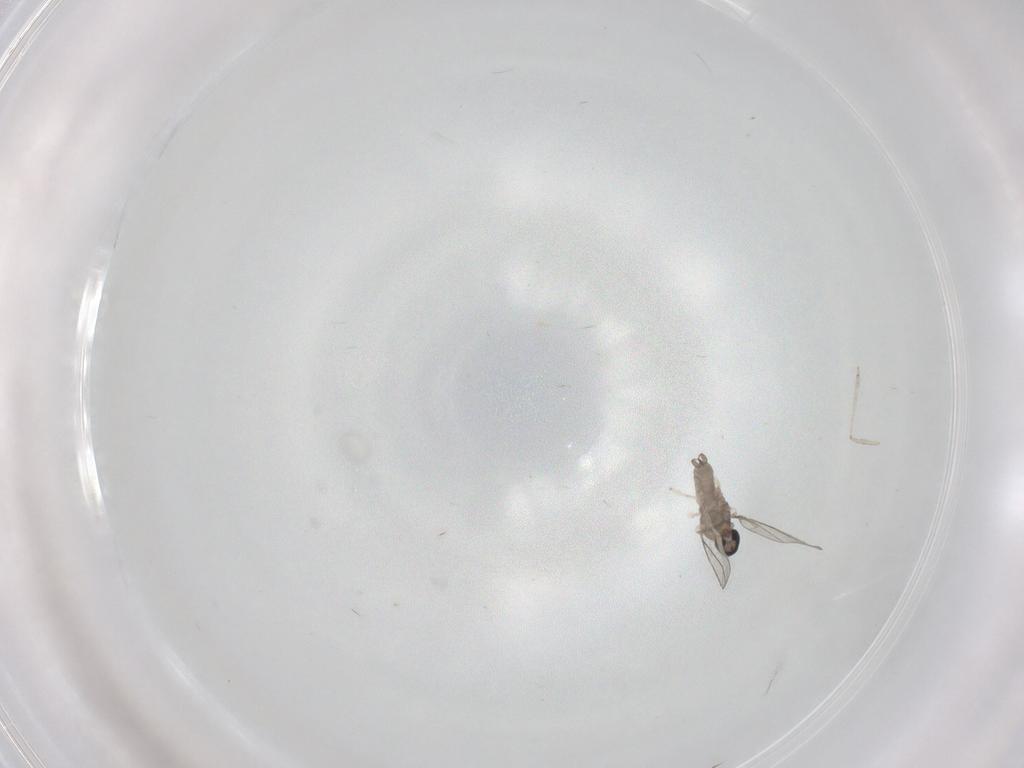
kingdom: Animalia
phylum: Arthropoda
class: Insecta
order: Diptera
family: Cecidomyiidae
